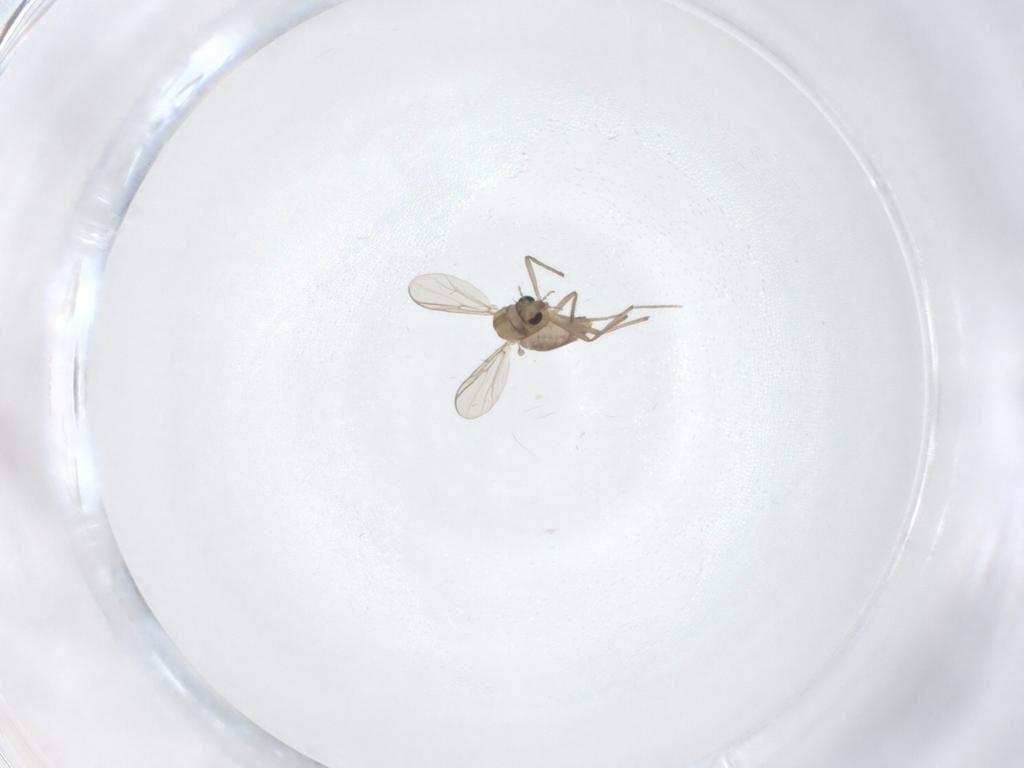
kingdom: Animalia
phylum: Arthropoda
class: Insecta
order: Diptera
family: Chironomidae
